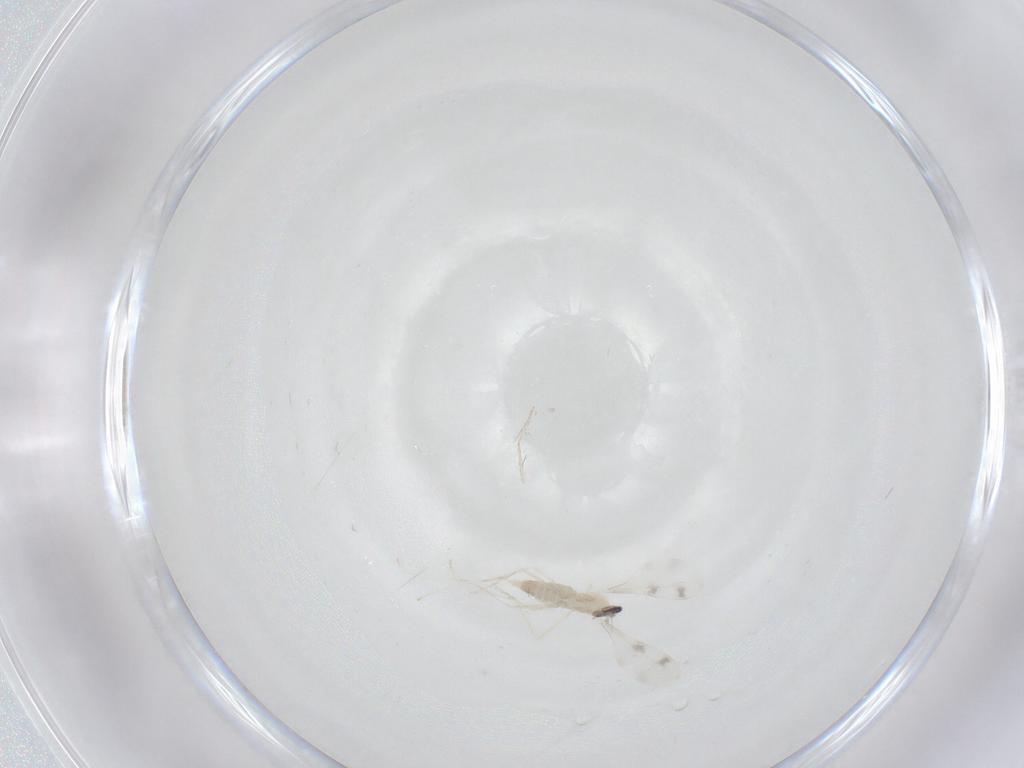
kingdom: Animalia
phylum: Arthropoda
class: Insecta
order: Diptera
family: Cecidomyiidae
